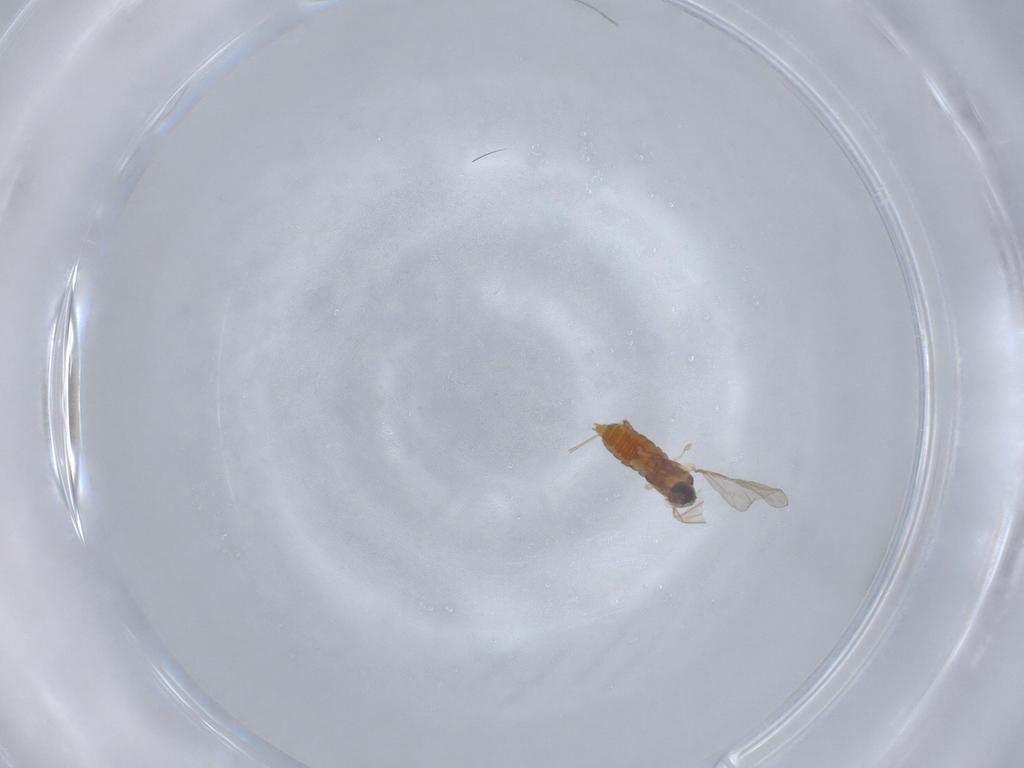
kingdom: Animalia
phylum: Arthropoda
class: Insecta
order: Diptera
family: Cecidomyiidae
